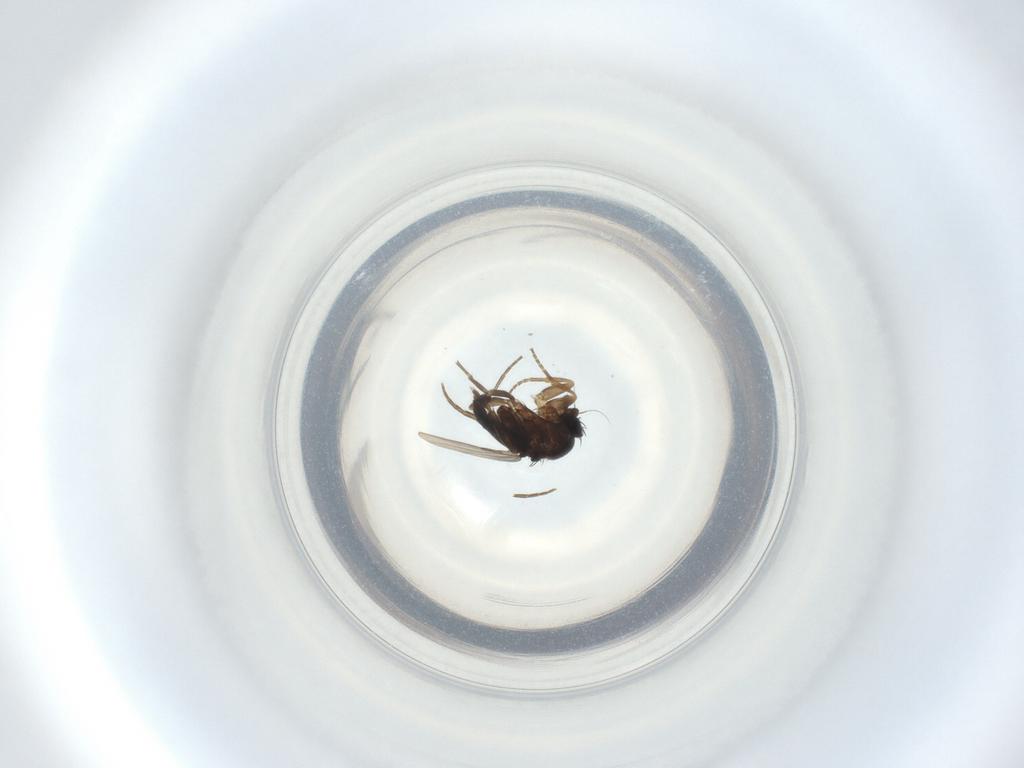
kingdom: Animalia
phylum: Arthropoda
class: Insecta
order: Diptera
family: Phoridae
